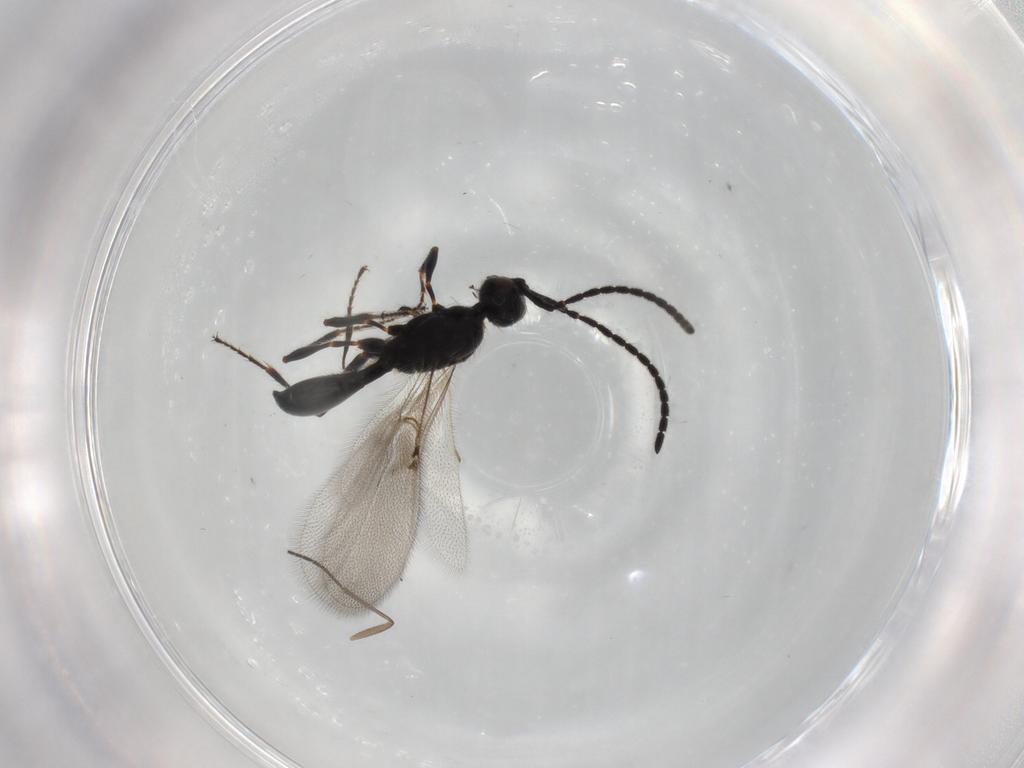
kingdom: Animalia
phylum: Arthropoda
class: Insecta
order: Hymenoptera
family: Diapriidae
